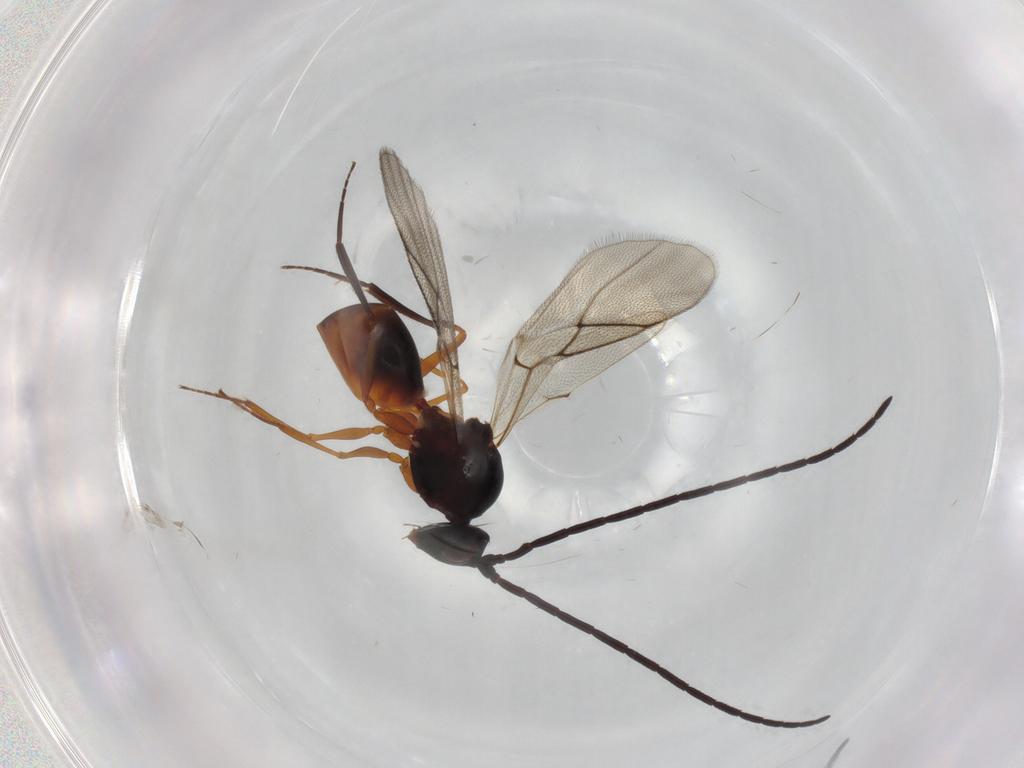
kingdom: Animalia
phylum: Arthropoda
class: Insecta
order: Hymenoptera
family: Figitidae
